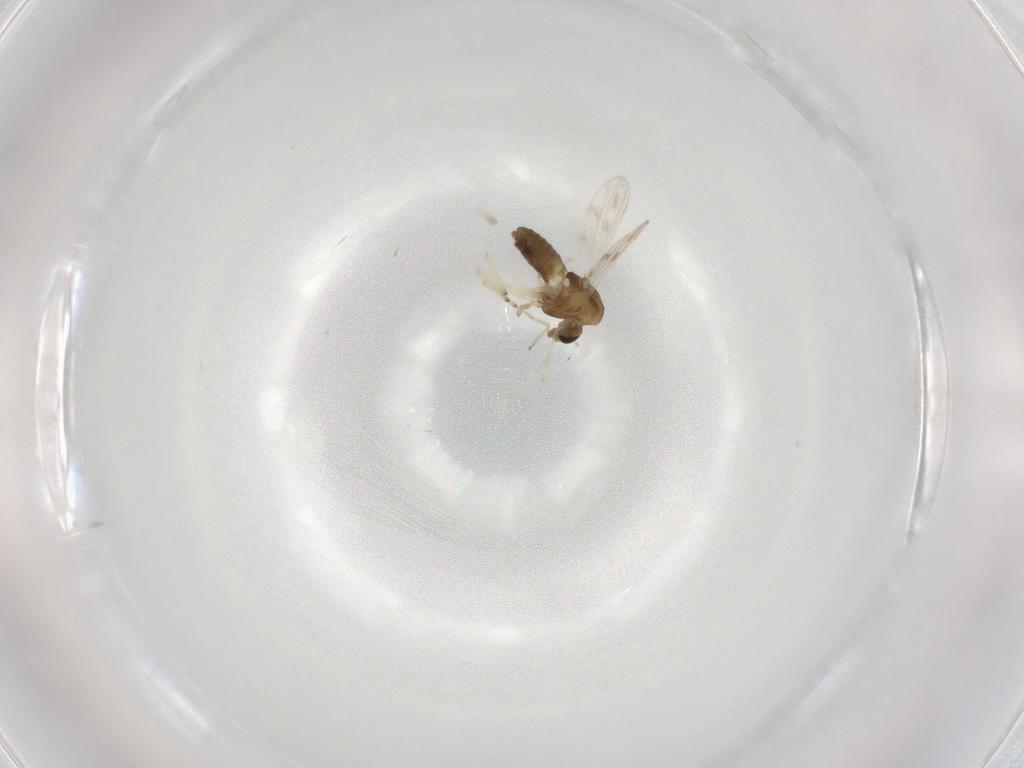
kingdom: Animalia
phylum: Arthropoda
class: Insecta
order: Diptera
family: Chironomidae
